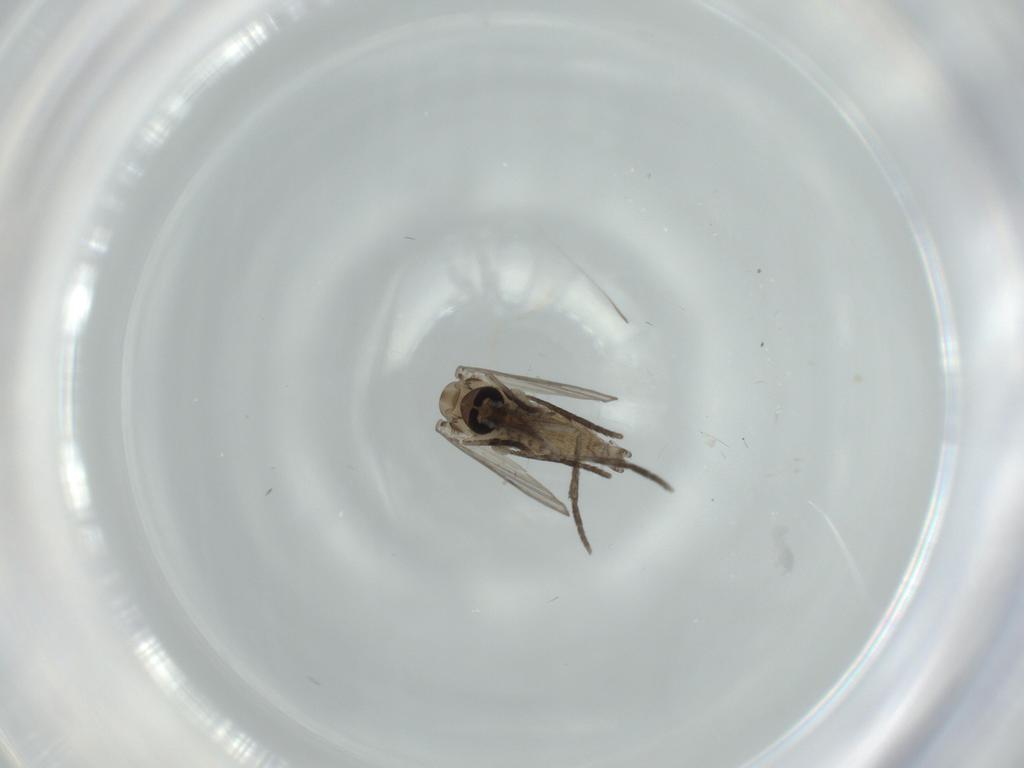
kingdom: Animalia
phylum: Arthropoda
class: Insecta
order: Diptera
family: Psychodidae
